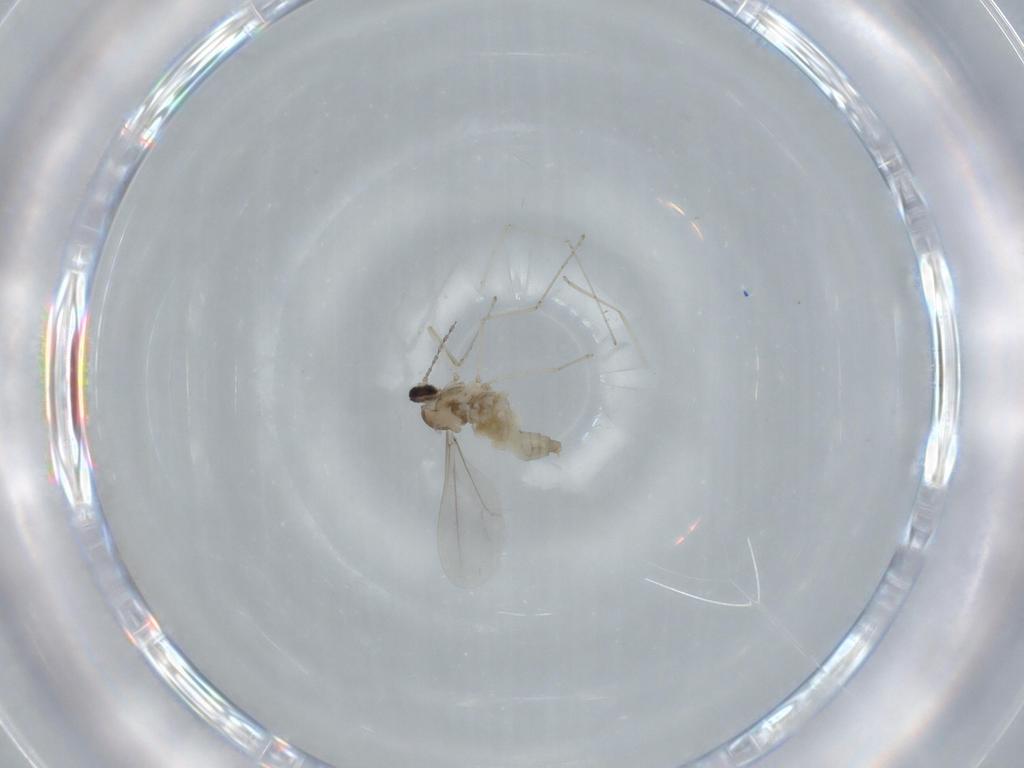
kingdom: Animalia
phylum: Arthropoda
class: Insecta
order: Diptera
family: Cecidomyiidae
